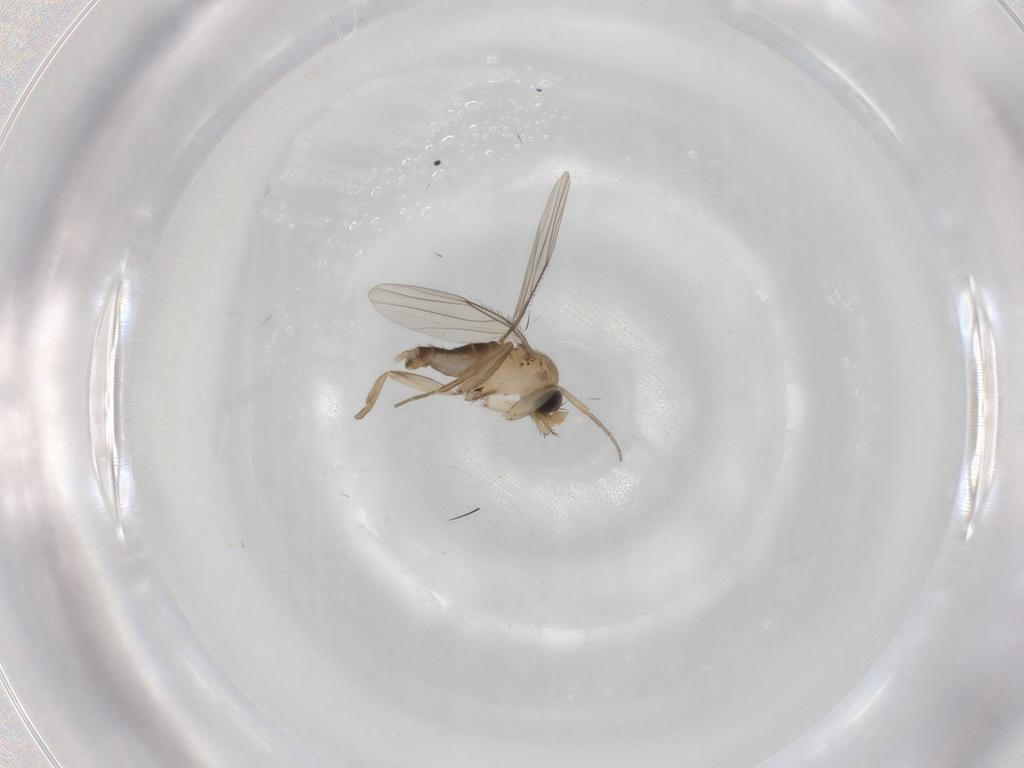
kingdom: Animalia
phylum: Arthropoda
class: Insecta
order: Diptera
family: Phoridae
